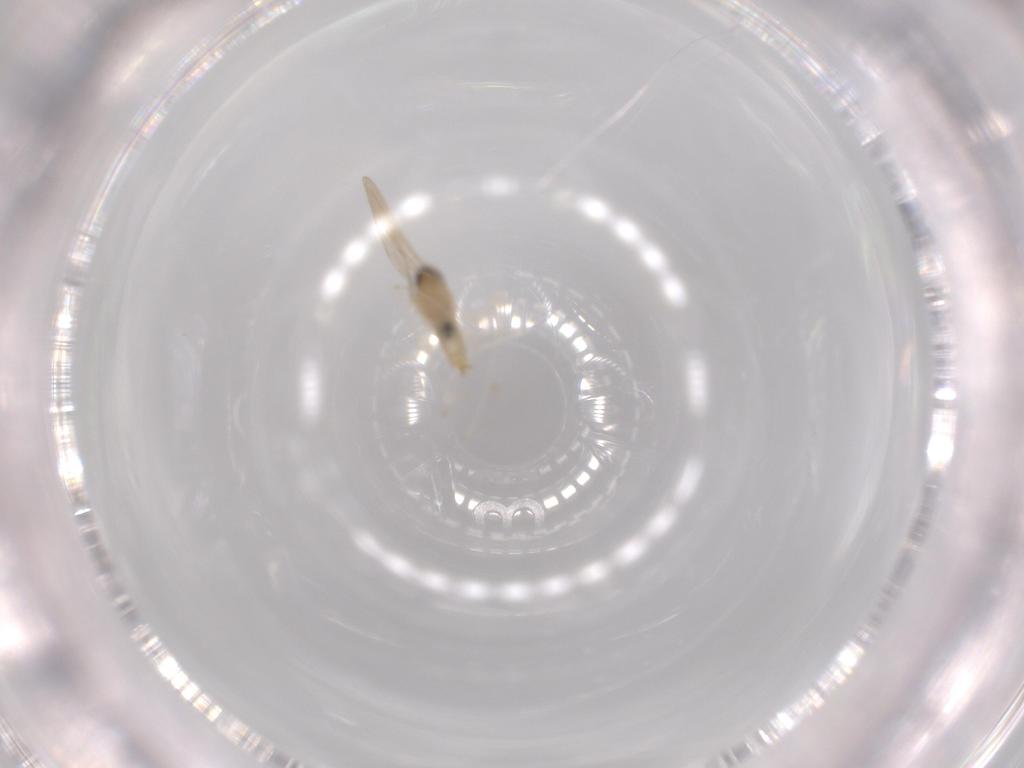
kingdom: Animalia
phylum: Arthropoda
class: Insecta
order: Diptera
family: Cecidomyiidae
